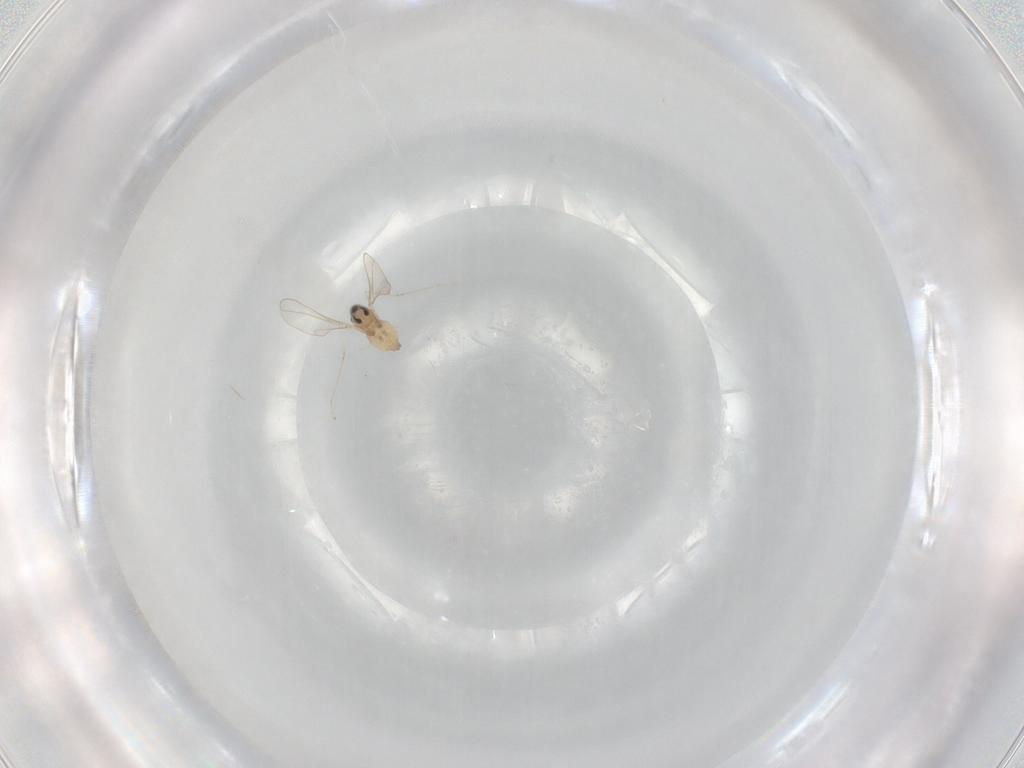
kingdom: Animalia
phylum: Arthropoda
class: Insecta
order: Diptera
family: Cecidomyiidae
